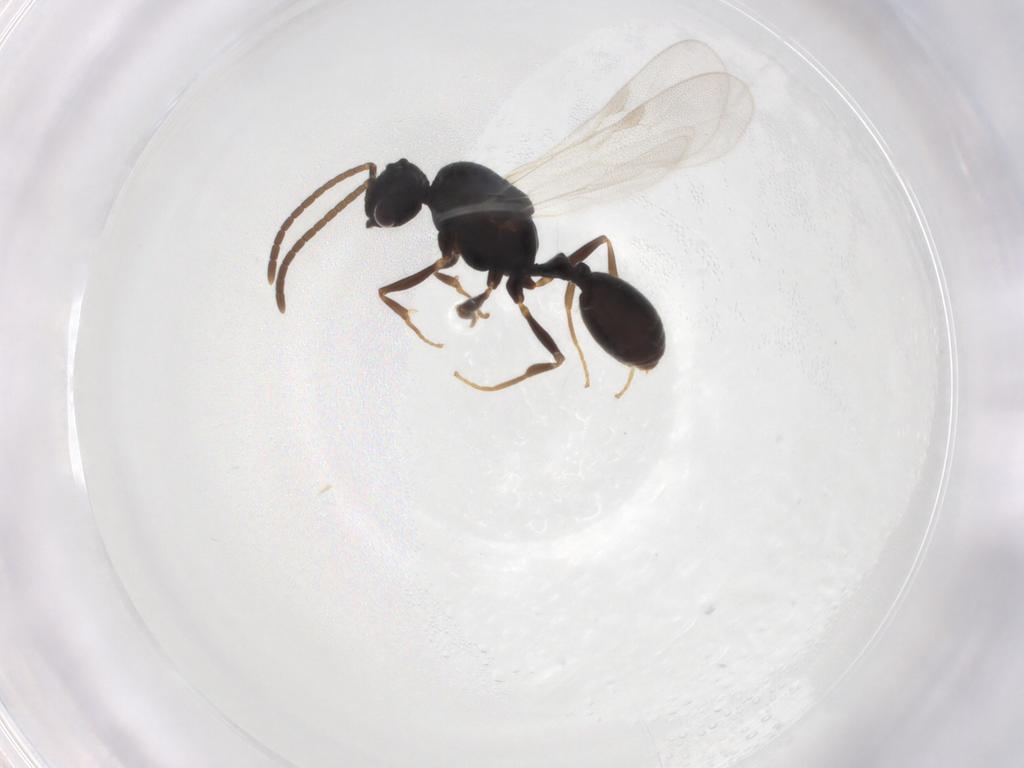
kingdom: Animalia
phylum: Arthropoda
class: Insecta
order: Hymenoptera
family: Formicidae
